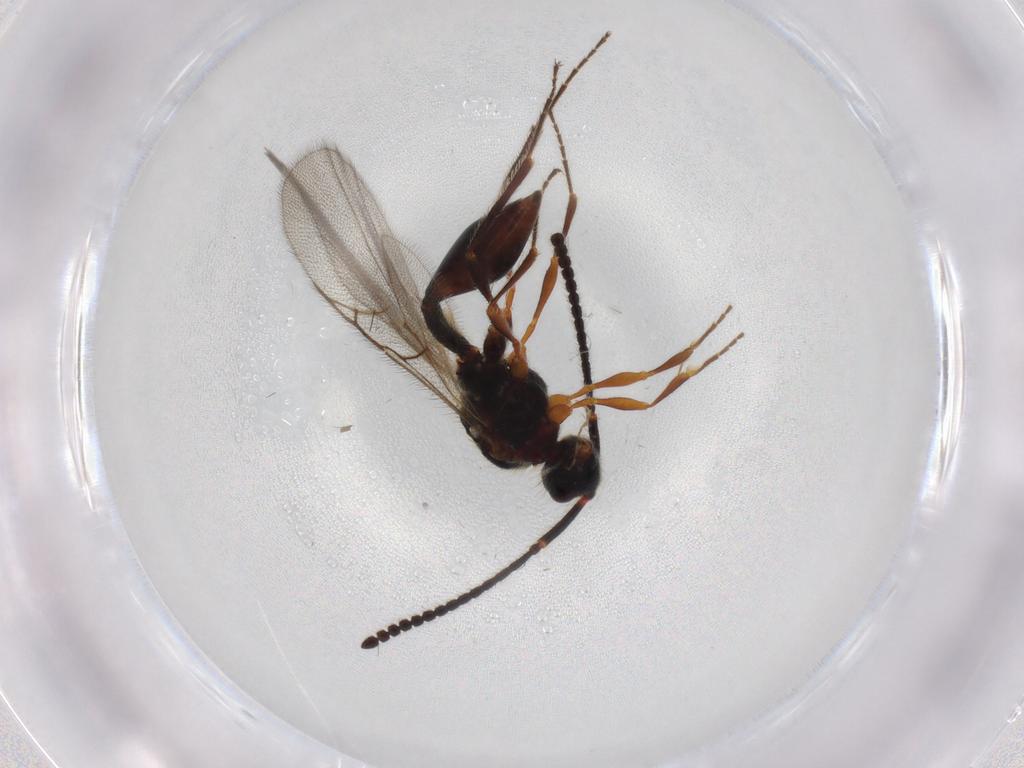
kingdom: Animalia
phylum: Arthropoda
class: Insecta
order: Hymenoptera
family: Diapriidae
